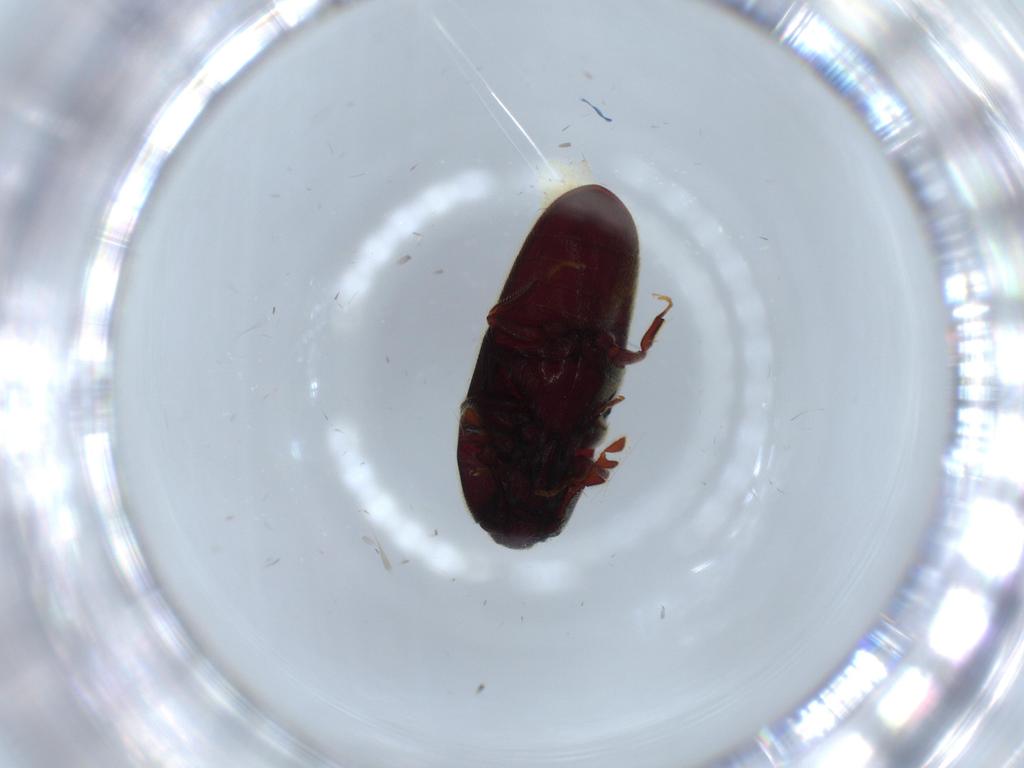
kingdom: Animalia
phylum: Arthropoda
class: Insecta
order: Coleoptera
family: Throscidae
